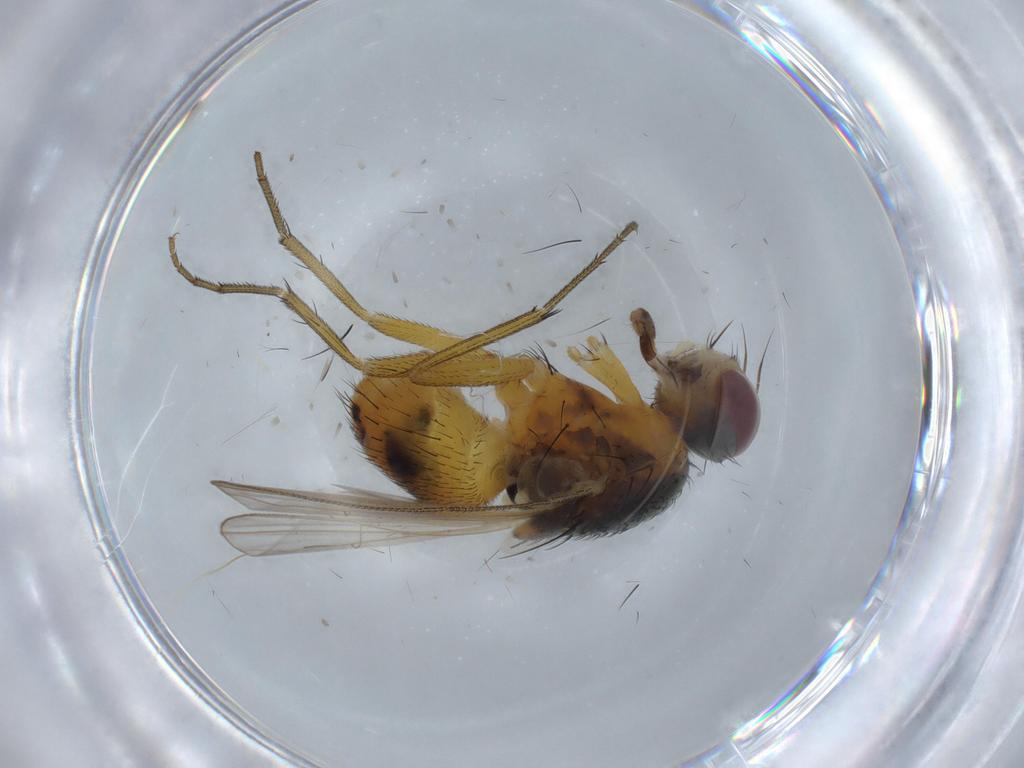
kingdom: Animalia
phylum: Arthropoda
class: Insecta
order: Diptera
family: Muscidae
